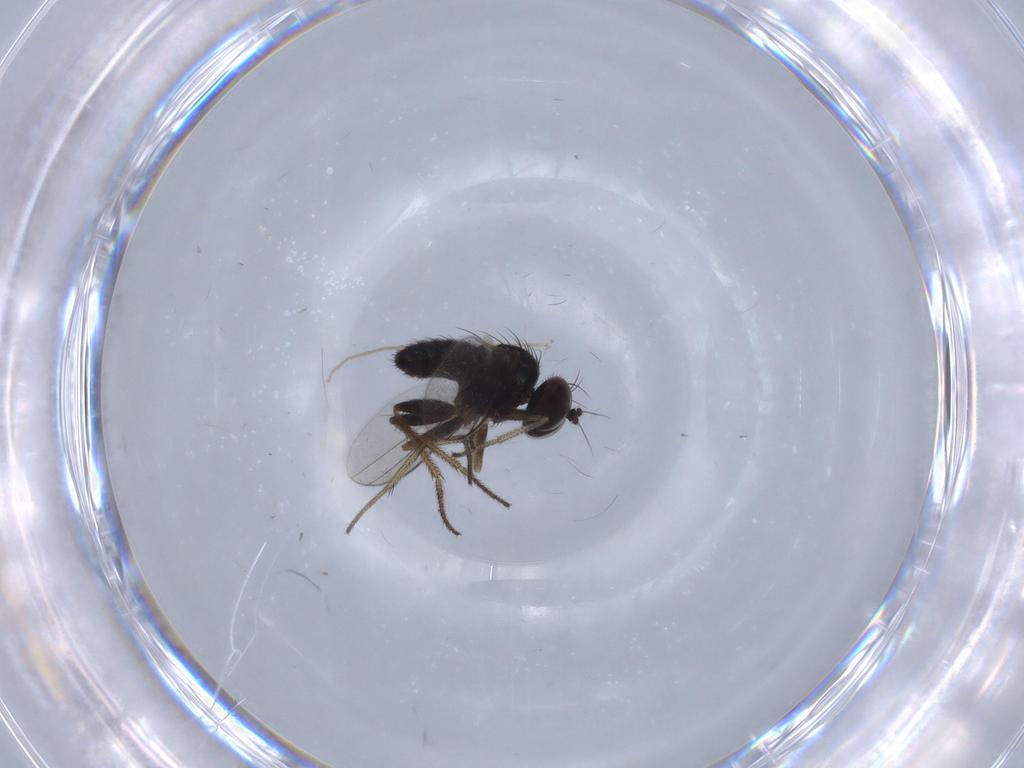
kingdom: Animalia
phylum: Arthropoda
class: Insecta
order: Diptera
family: Chironomidae
